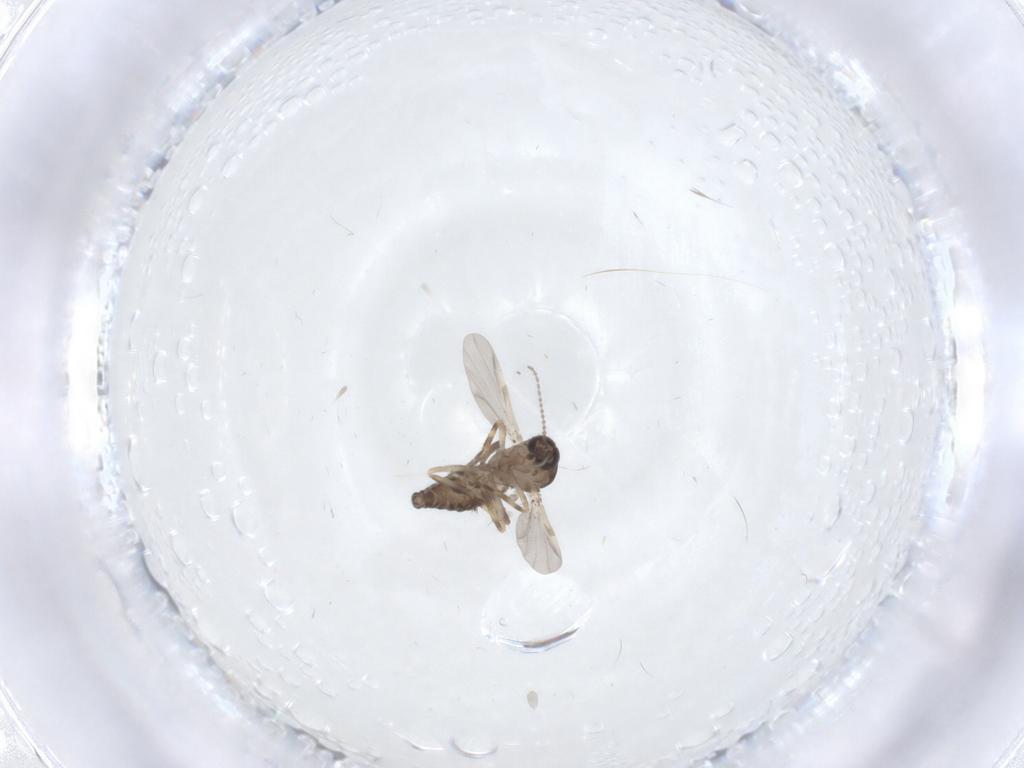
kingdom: Animalia
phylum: Arthropoda
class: Insecta
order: Diptera
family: Ceratopogonidae
